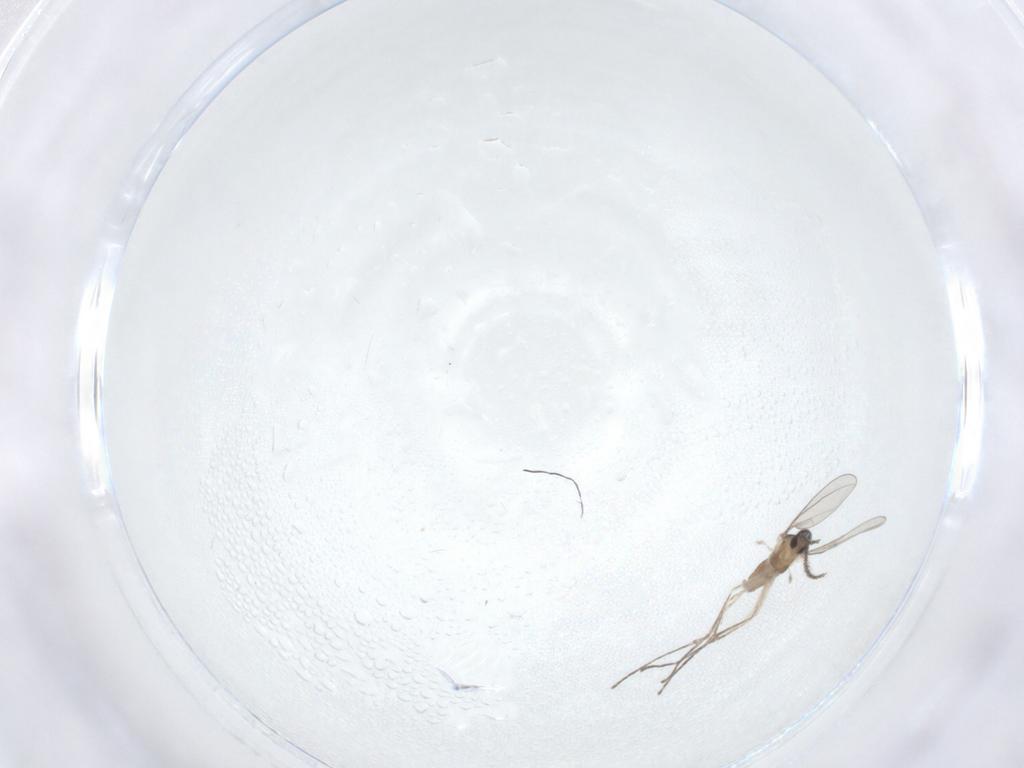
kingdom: Animalia
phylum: Arthropoda
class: Insecta
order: Diptera
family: Cecidomyiidae
